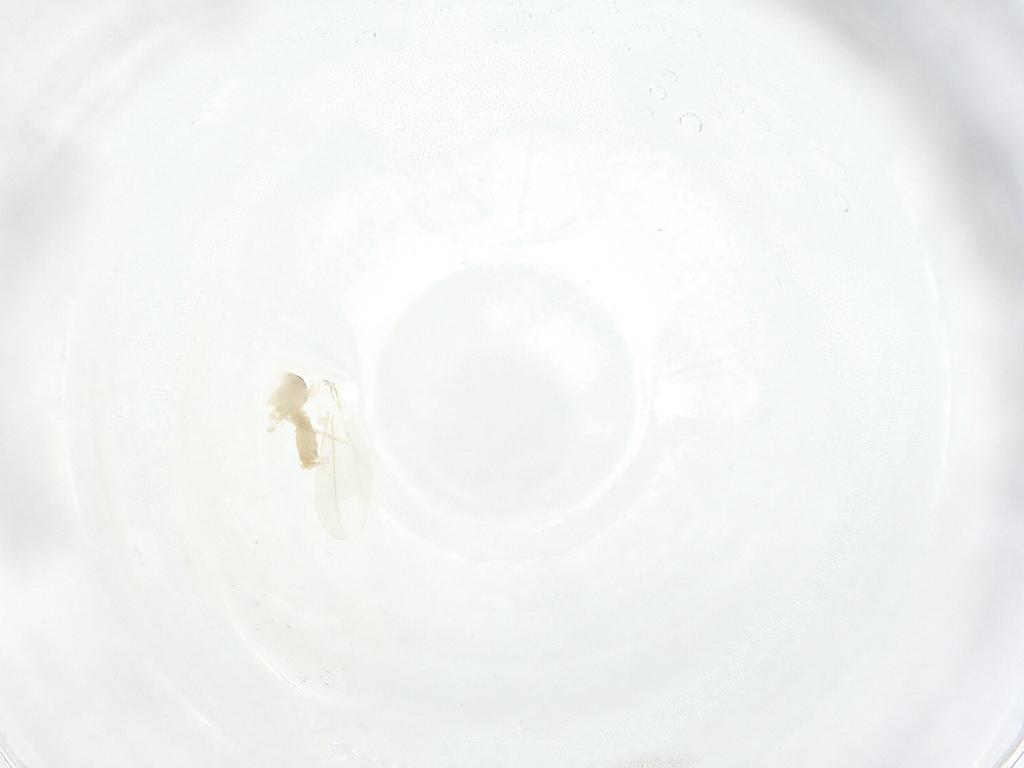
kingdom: Animalia
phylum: Arthropoda
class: Insecta
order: Diptera
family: Cecidomyiidae
